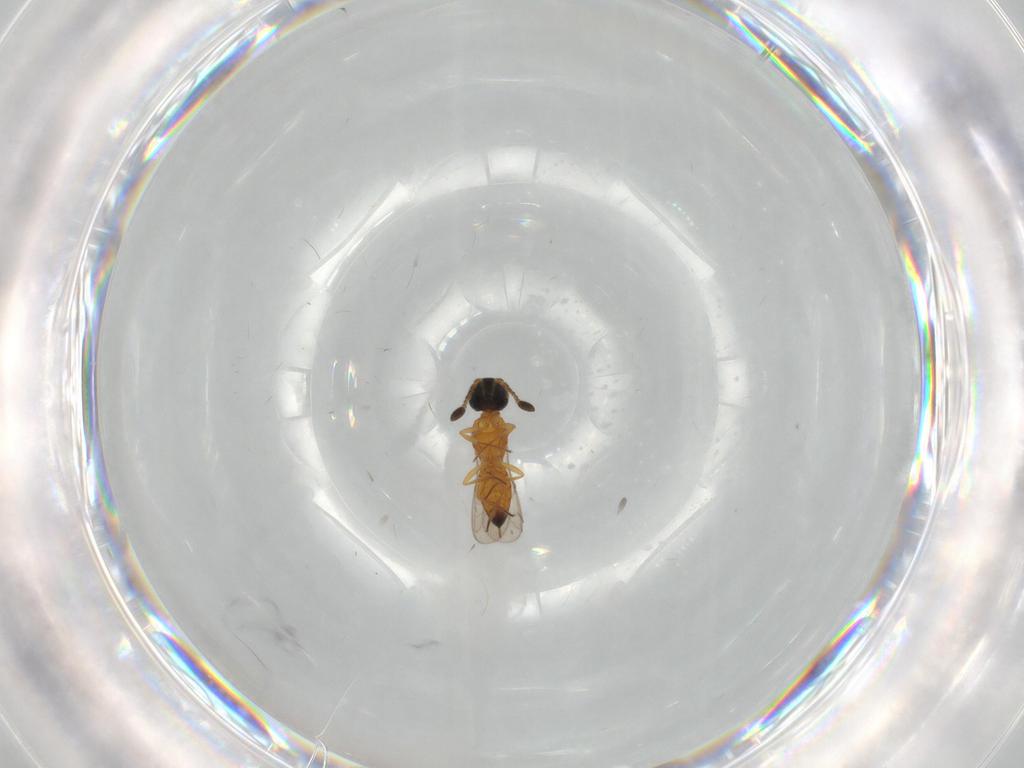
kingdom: Animalia
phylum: Arthropoda
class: Insecta
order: Hymenoptera
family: Scelionidae
